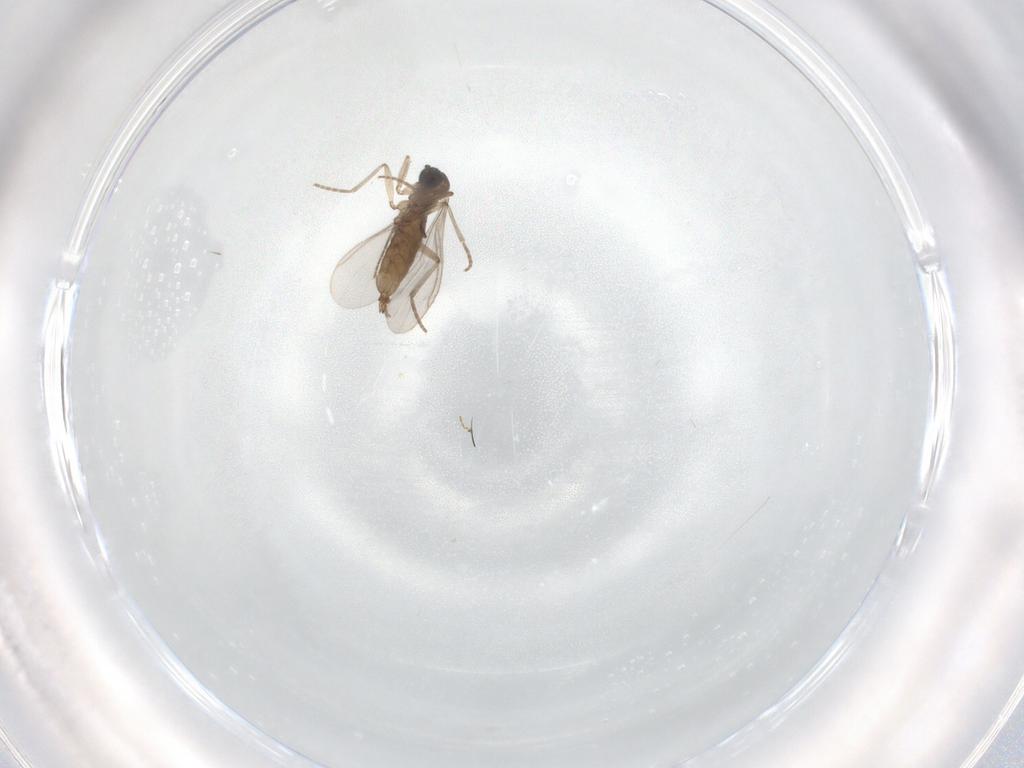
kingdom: Animalia
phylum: Arthropoda
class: Insecta
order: Diptera
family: Sciaridae
